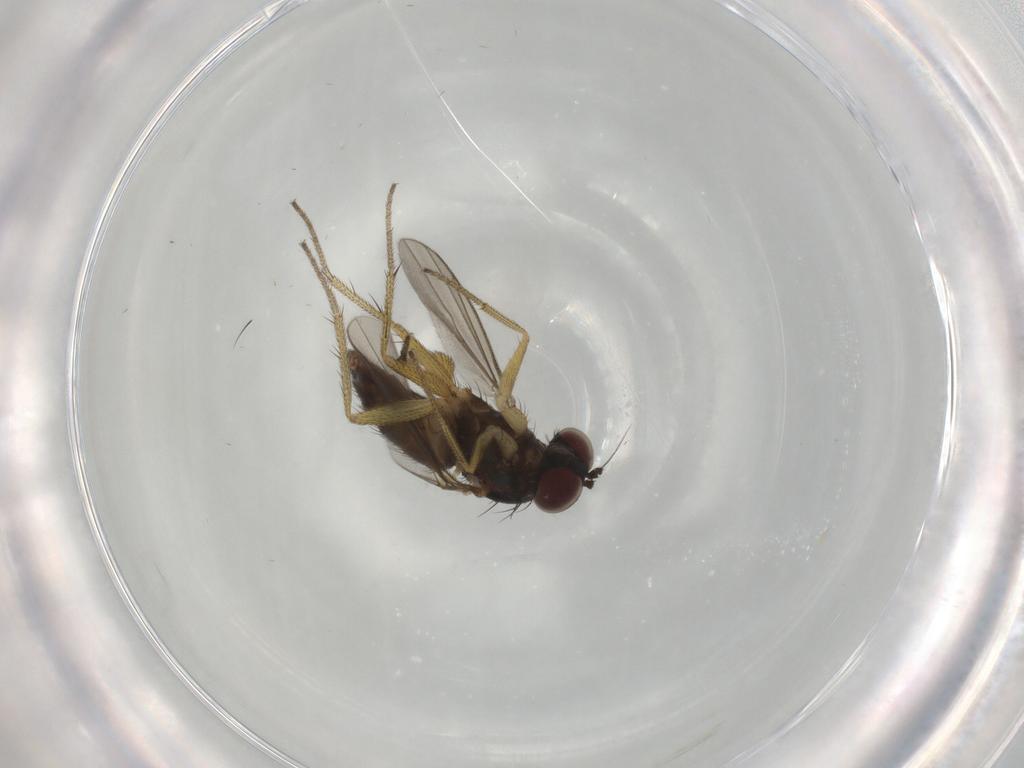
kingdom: Animalia
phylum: Arthropoda
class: Insecta
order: Diptera
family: Dolichopodidae
